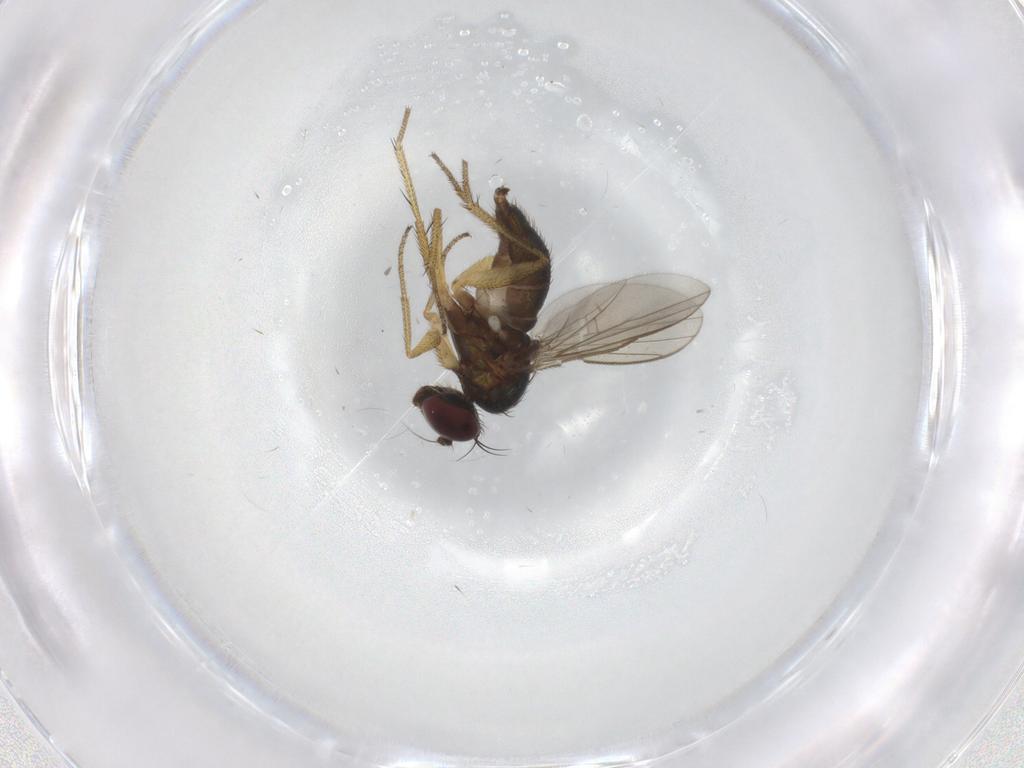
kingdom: Animalia
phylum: Arthropoda
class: Insecta
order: Diptera
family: Dolichopodidae
